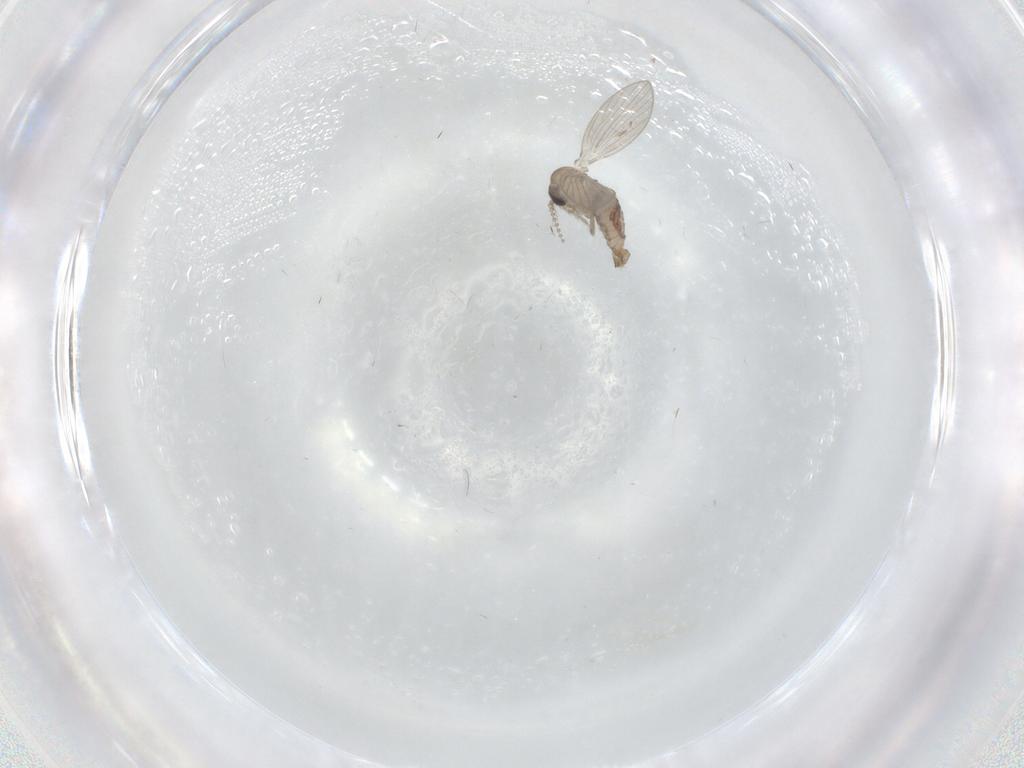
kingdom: Animalia
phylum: Arthropoda
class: Insecta
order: Diptera
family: Psychodidae
